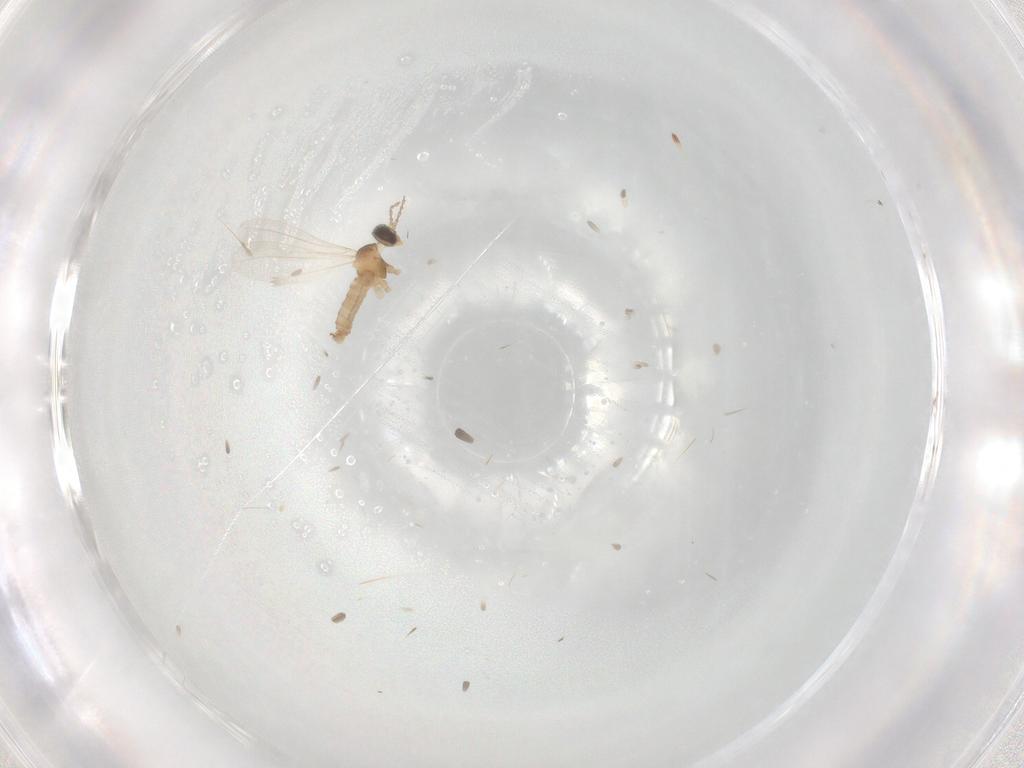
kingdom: Animalia
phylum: Arthropoda
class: Insecta
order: Diptera
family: Cecidomyiidae
